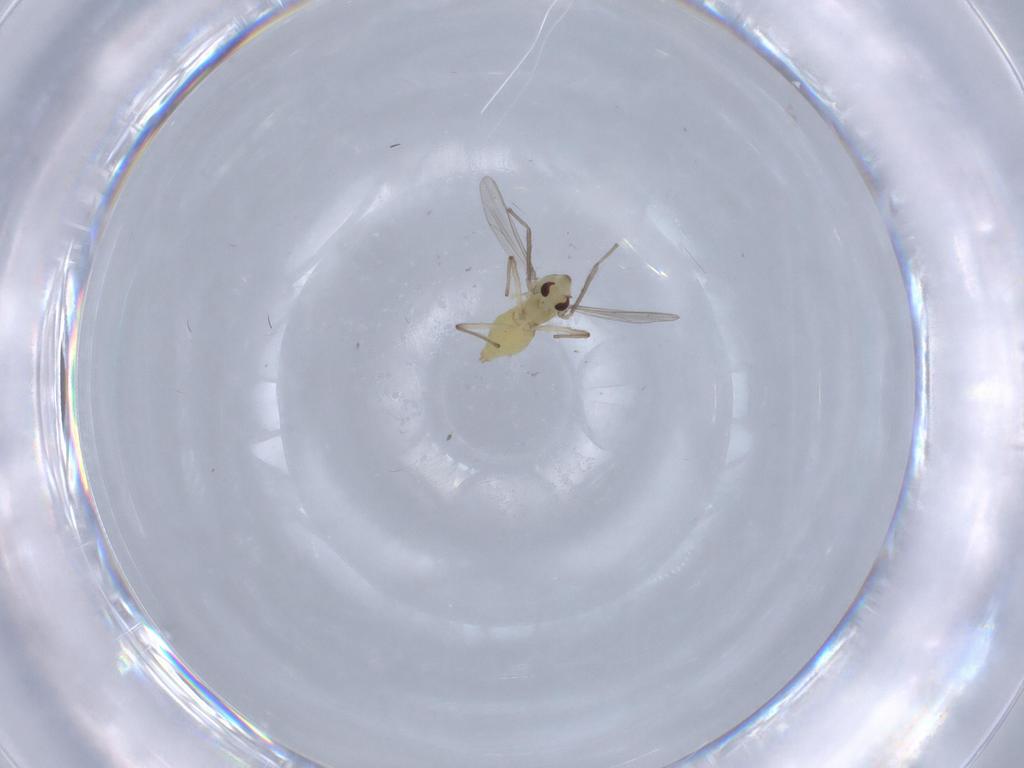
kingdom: Animalia
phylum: Arthropoda
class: Insecta
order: Diptera
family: Chironomidae
